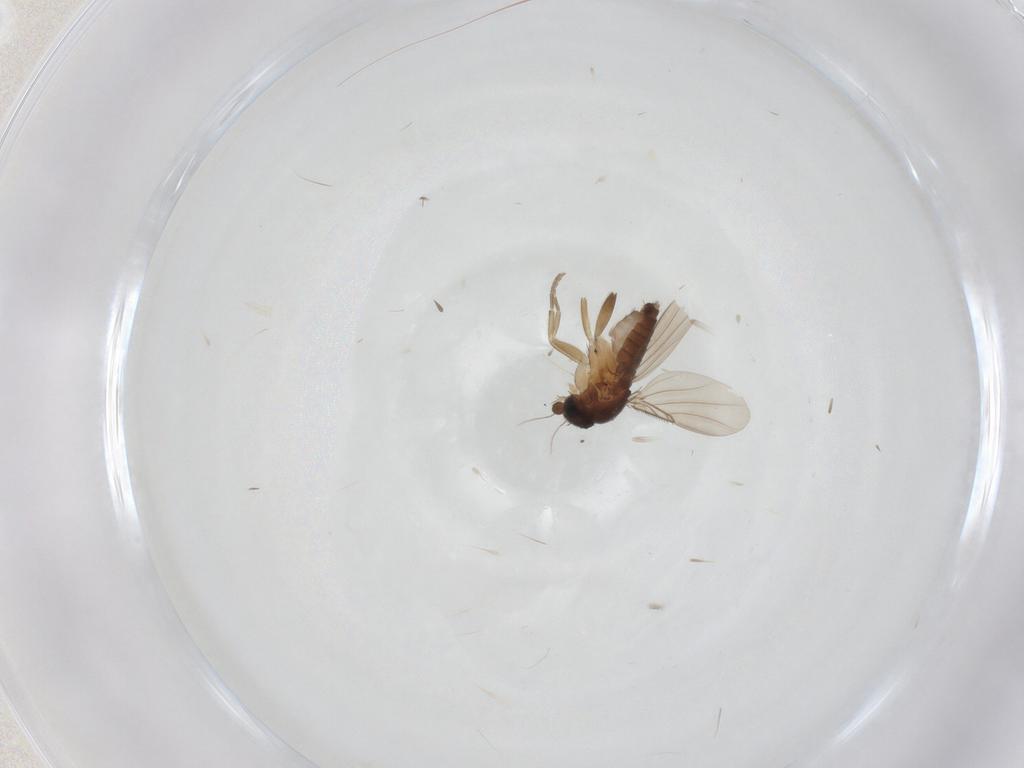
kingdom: Animalia
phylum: Arthropoda
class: Insecta
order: Diptera
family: Phoridae
